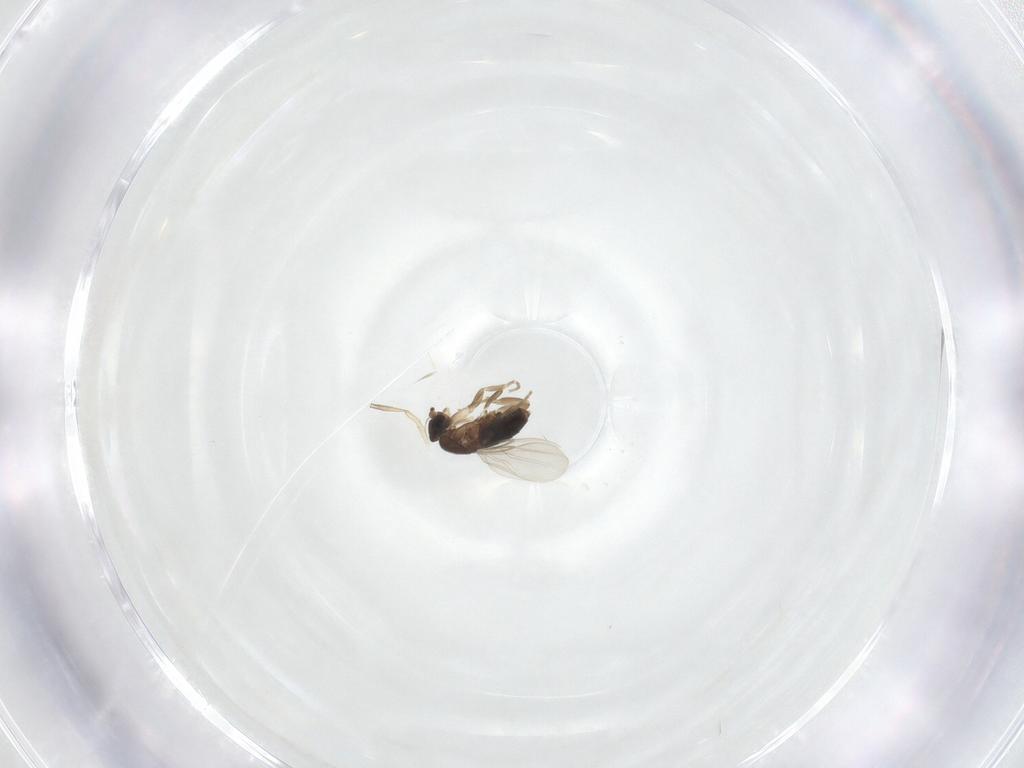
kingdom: Animalia
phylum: Arthropoda
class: Insecta
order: Diptera
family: Phoridae
